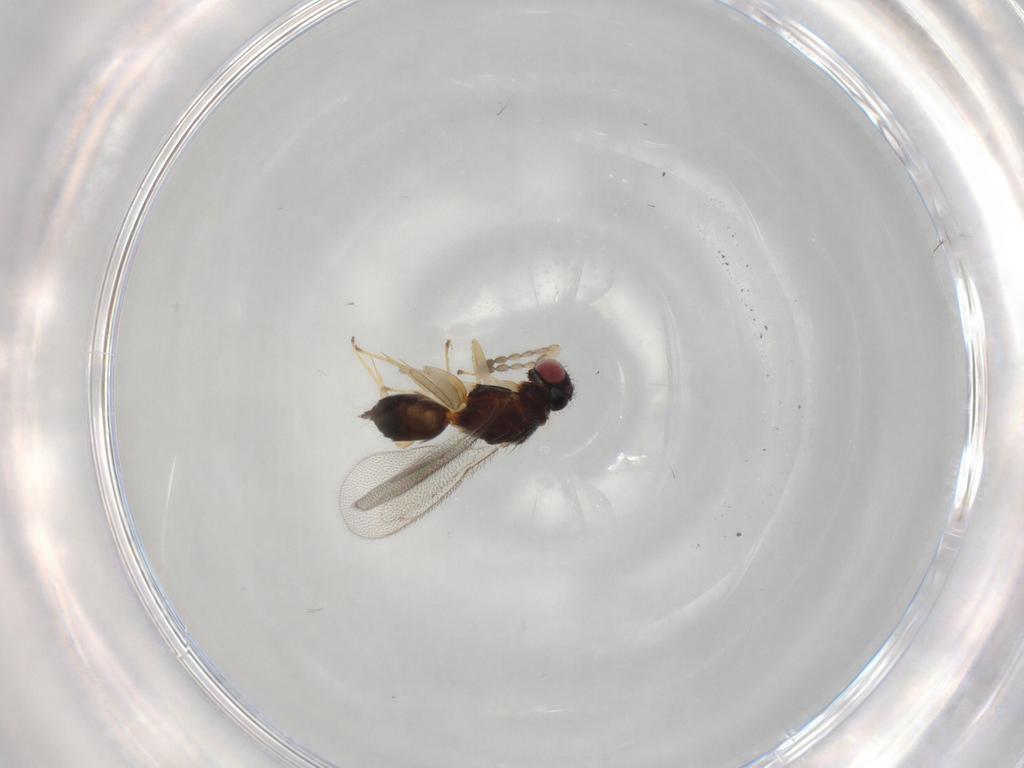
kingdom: Animalia
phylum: Arthropoda
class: Insecta
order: Hymenoptera
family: Eulophidae
